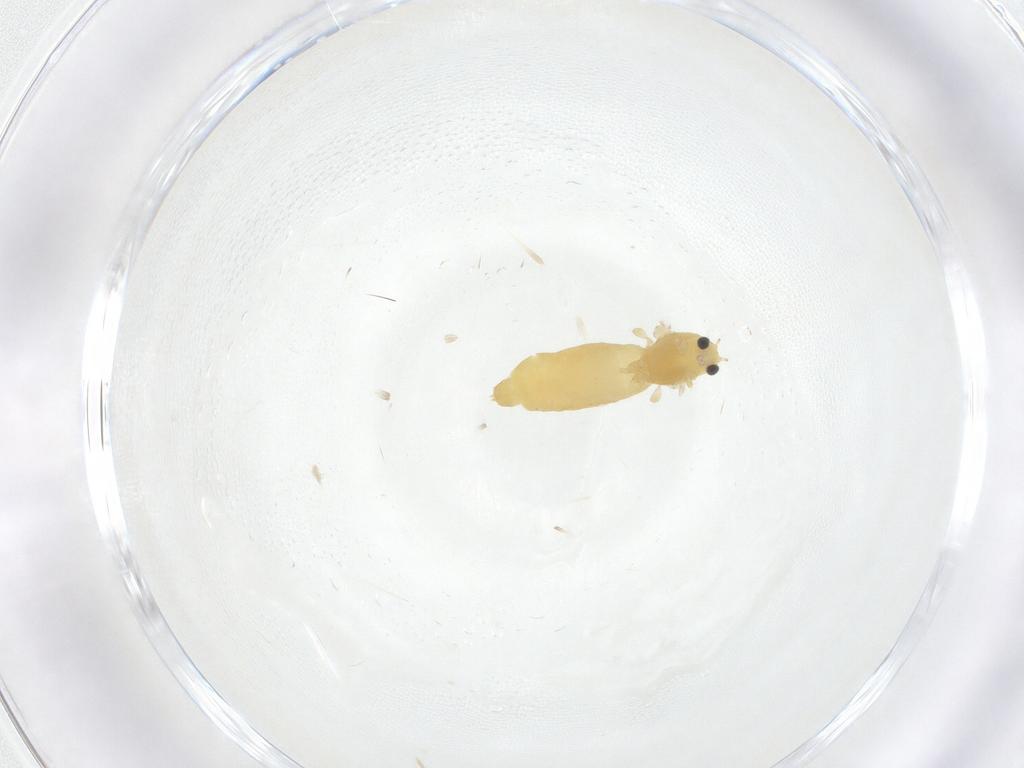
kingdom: Animalia
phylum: Arthropoda
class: Insecta
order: Diptera
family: Chironomidae
